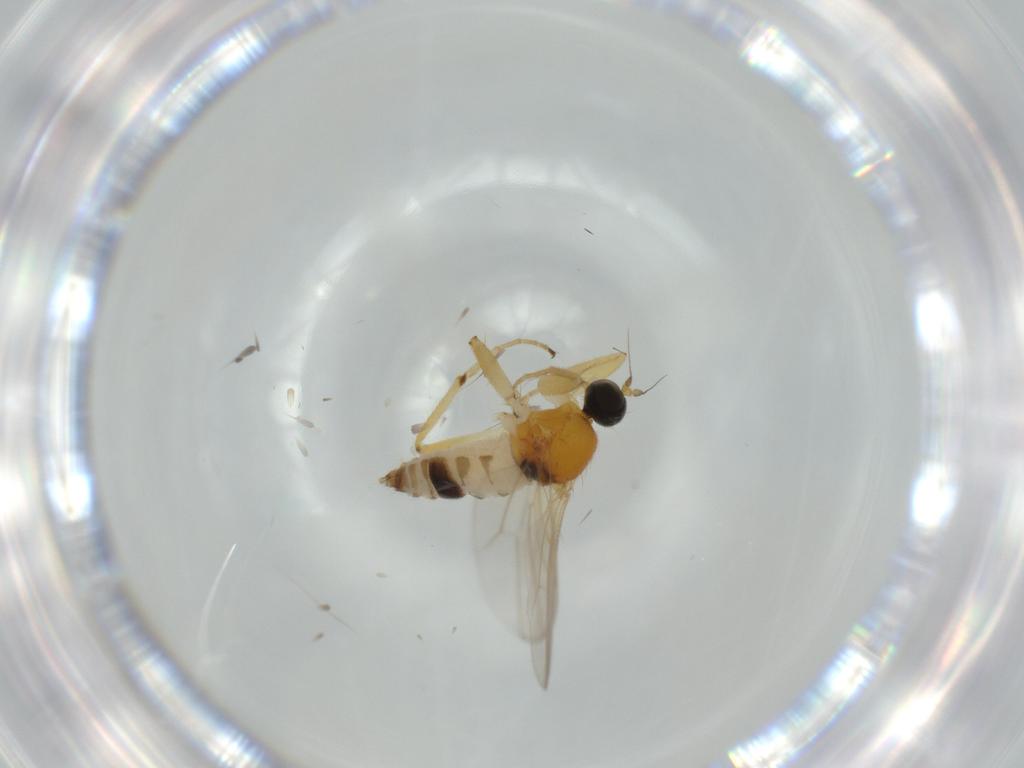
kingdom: Animalia
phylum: Arthropoda
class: Insecta
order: Diptera
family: Hybotidae
